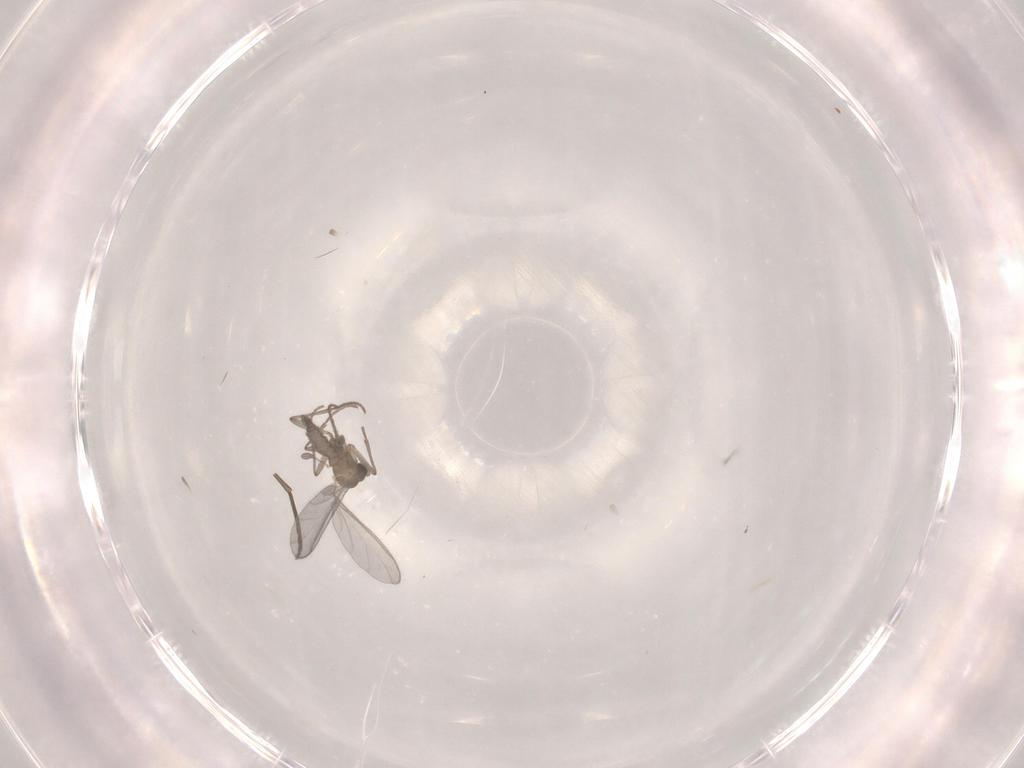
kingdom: Animalia
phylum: Arthropoda
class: Insecta
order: Diptera
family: Sciaridae
